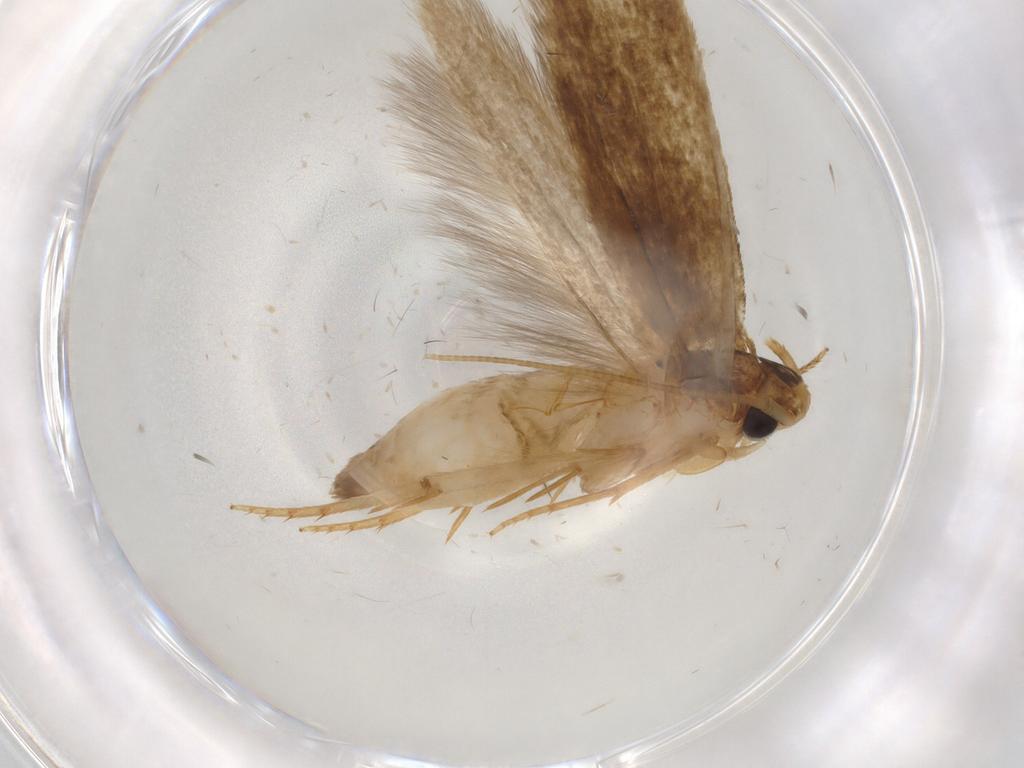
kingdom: Animalia
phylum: Arthropoda
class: Insecta
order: Lepidoptera
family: Tineidae
